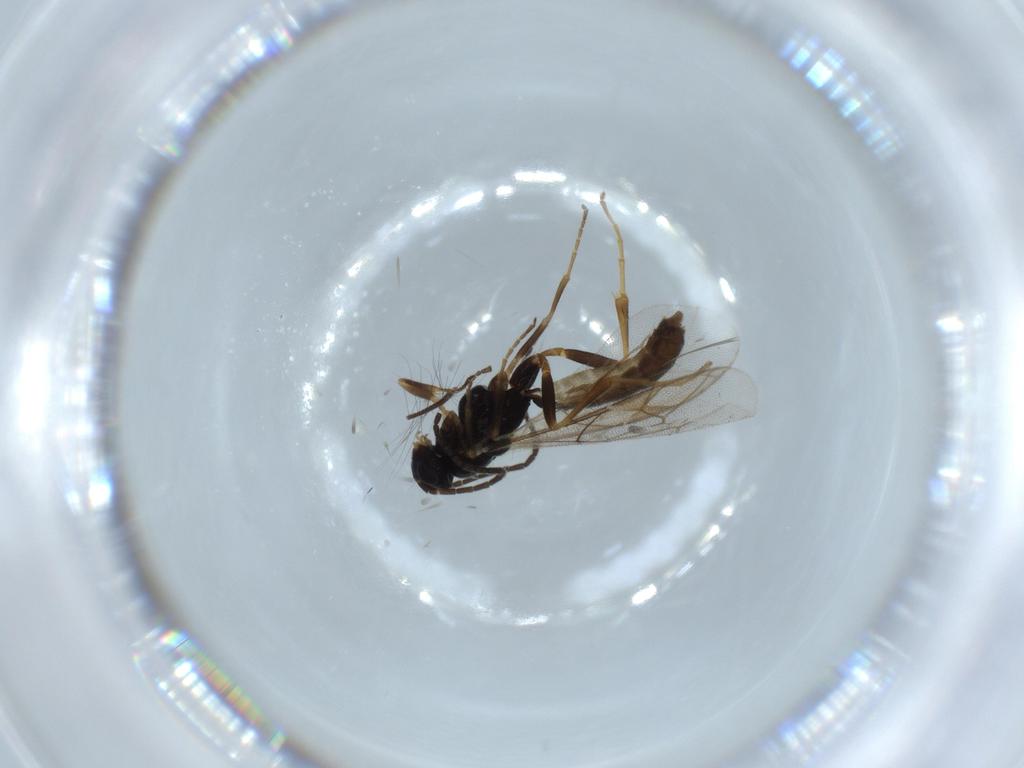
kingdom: Animalia
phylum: Arthropoda
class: Insecta
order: Hymenoptera
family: Ichneumonidae
